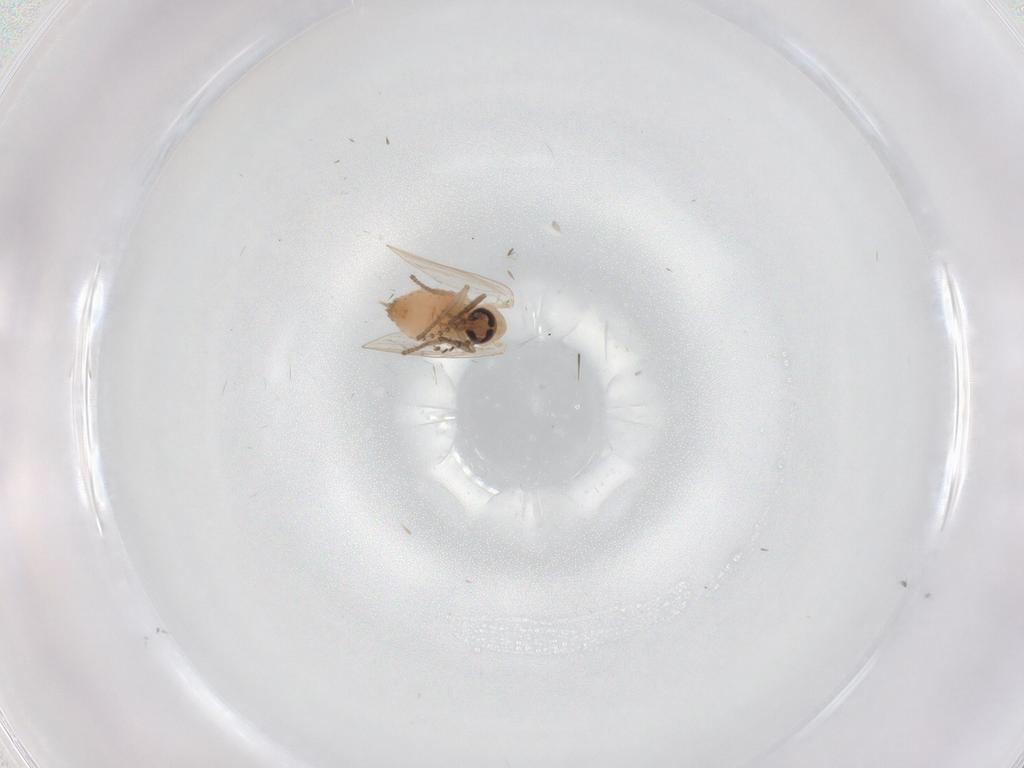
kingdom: Animalia
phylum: Arthropoda
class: Insecta
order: Diptera
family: Psychodidae
